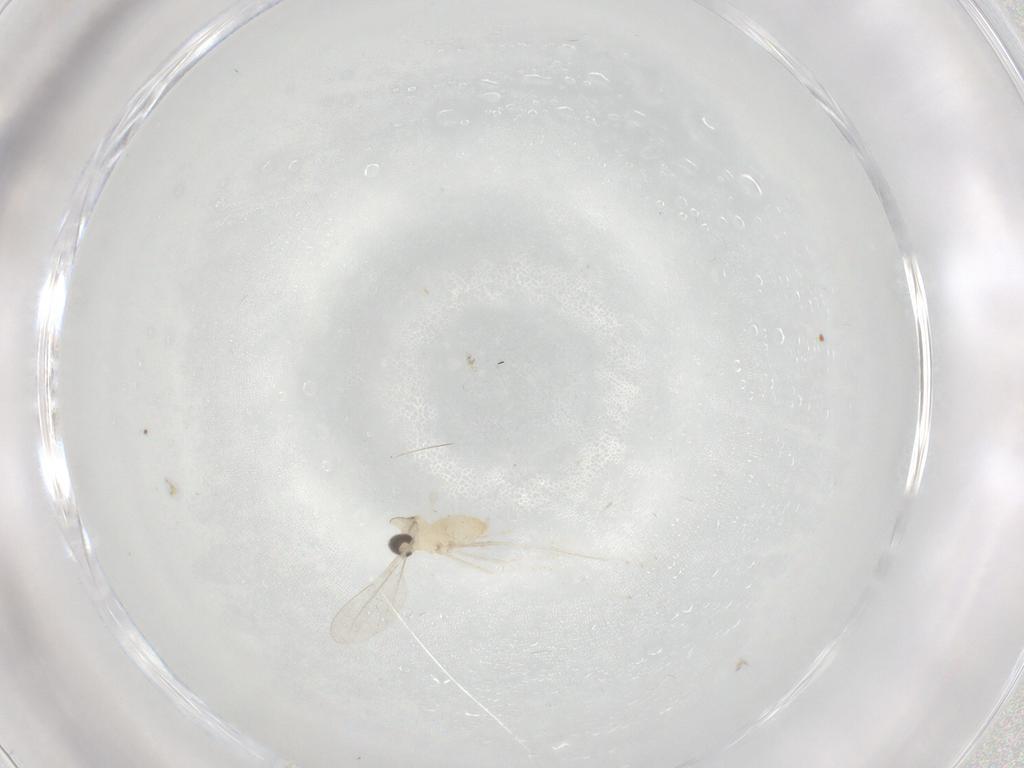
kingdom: Animalia
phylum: Arthropoda
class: Insecta
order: Diptera
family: Cecidomyiidae
